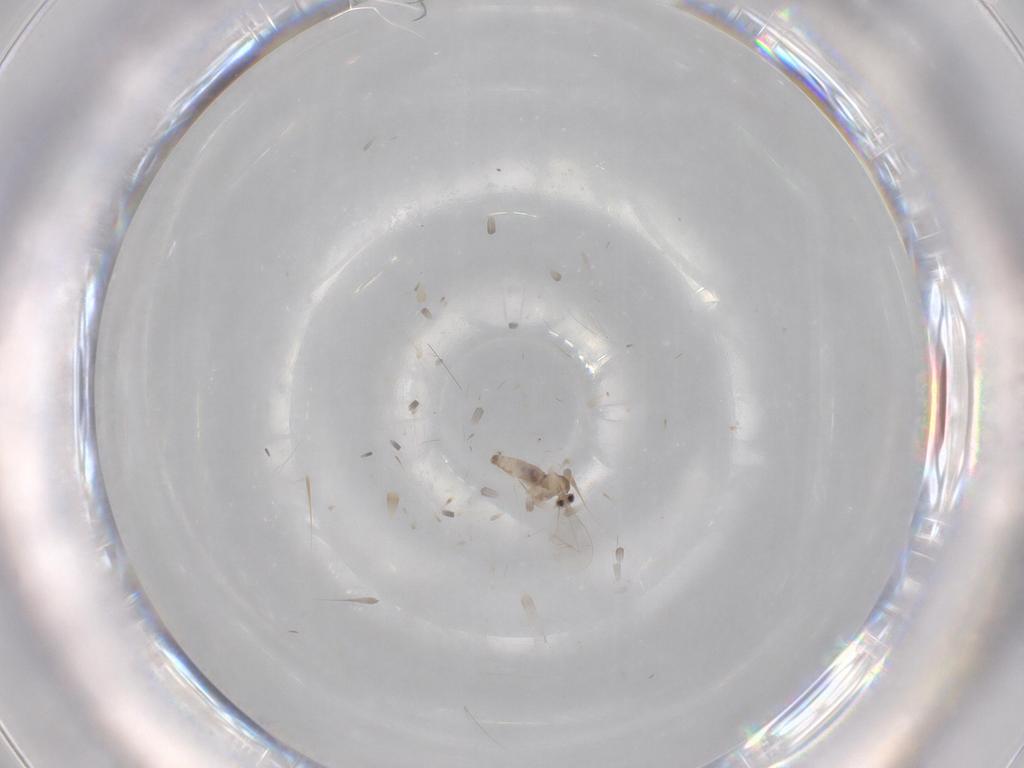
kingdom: Animalia
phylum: Arthropoda
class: Insecta
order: Diptera
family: Cecidomyiidae
